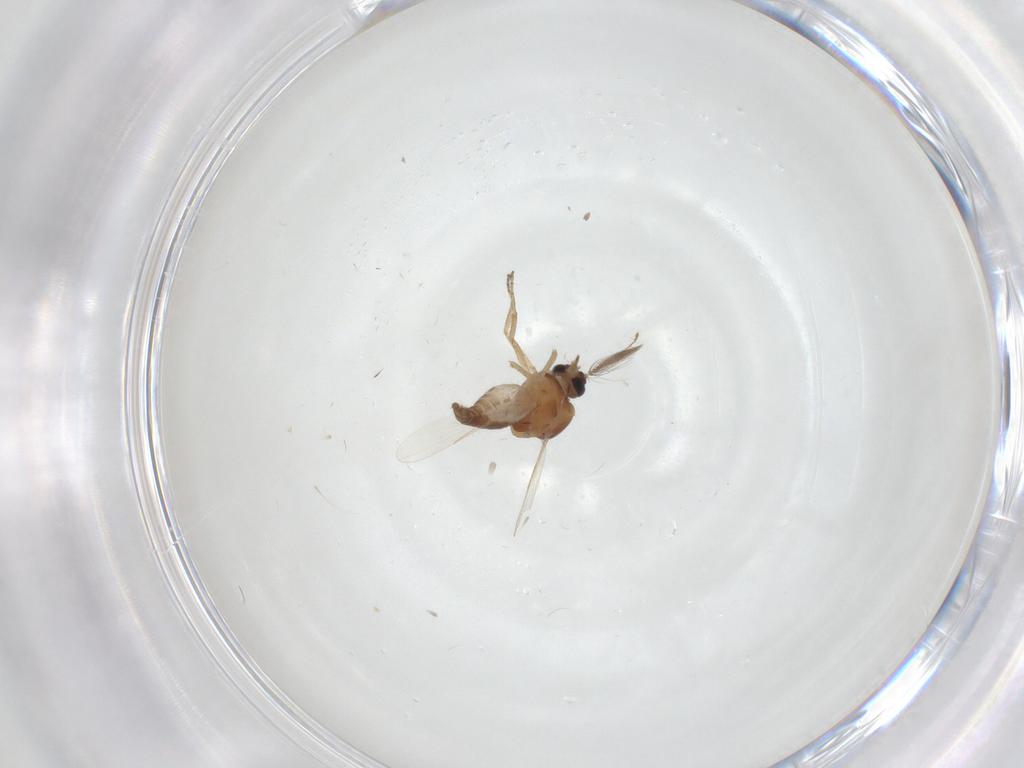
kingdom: Animalia
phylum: Arthropoda
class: Insecta
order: Diptera
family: Ceratopogonidae
